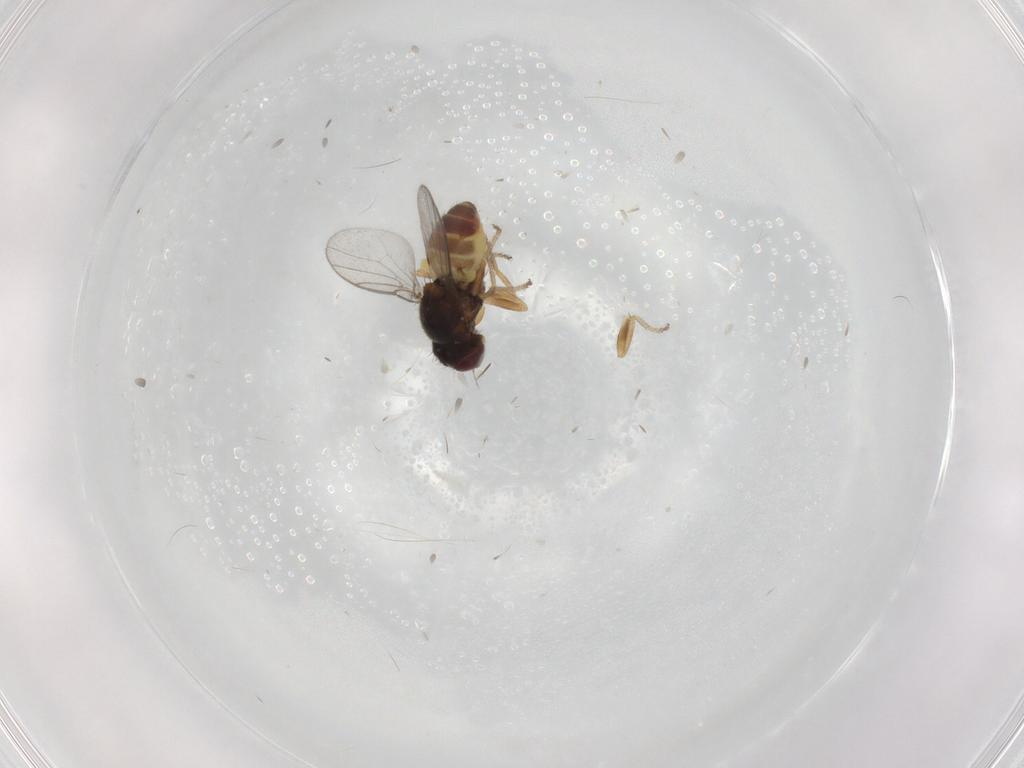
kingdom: Animalia
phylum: Arthropoda
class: Insecta
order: Diptera
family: Chloropidae
